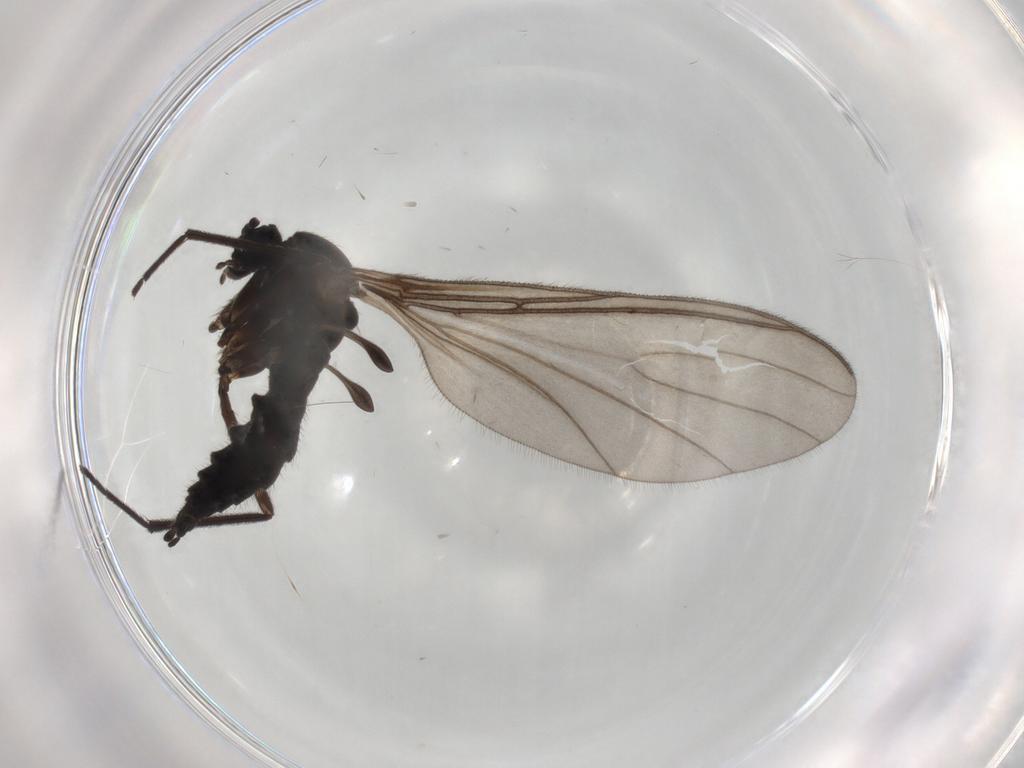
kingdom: Animalia
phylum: Arthropoda
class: Insecta
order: Diptera
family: Sciaridae
